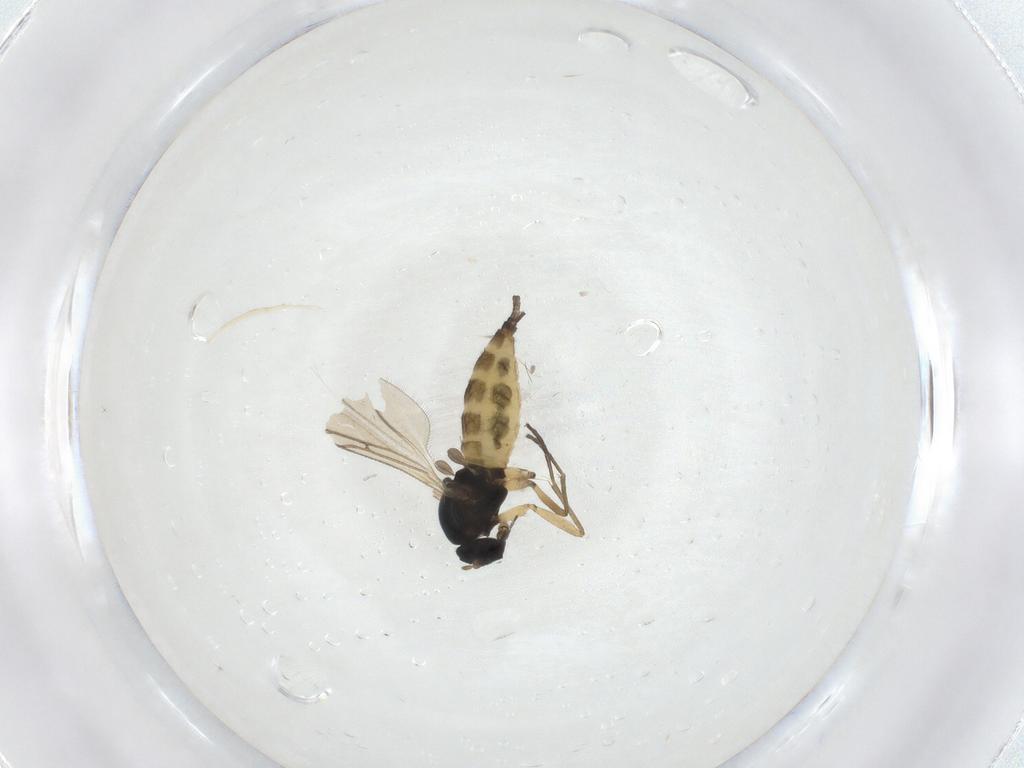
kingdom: Animalia
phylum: Arthropoda
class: Insecta
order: Diptera
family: Sciaridae
